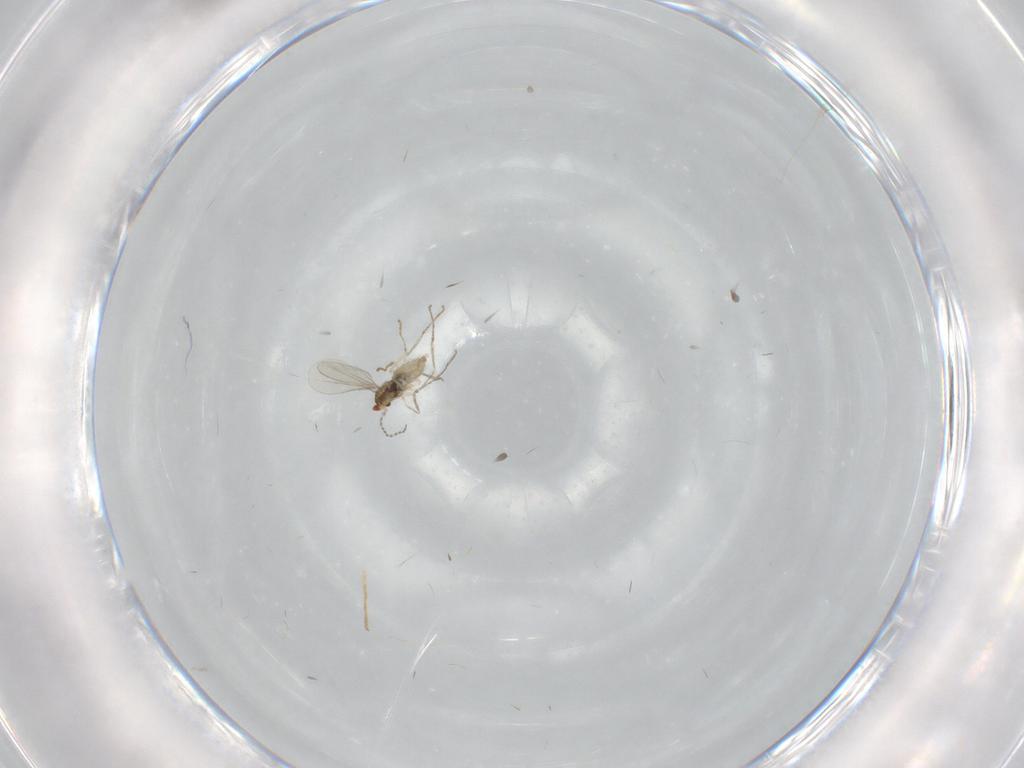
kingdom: Animalia
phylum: Arthropoda
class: Insecta
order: Diptera
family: Cecidomyiidae
